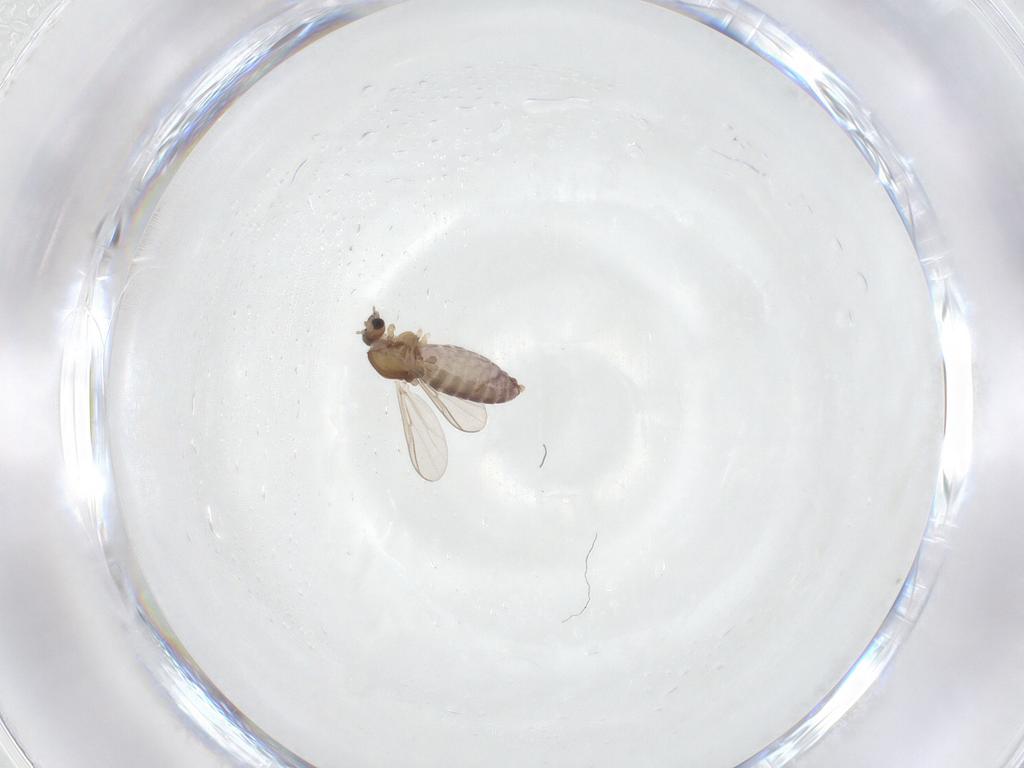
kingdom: Animalia
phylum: Arthropoda
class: Insecta
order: Diptera
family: Chironomidae
